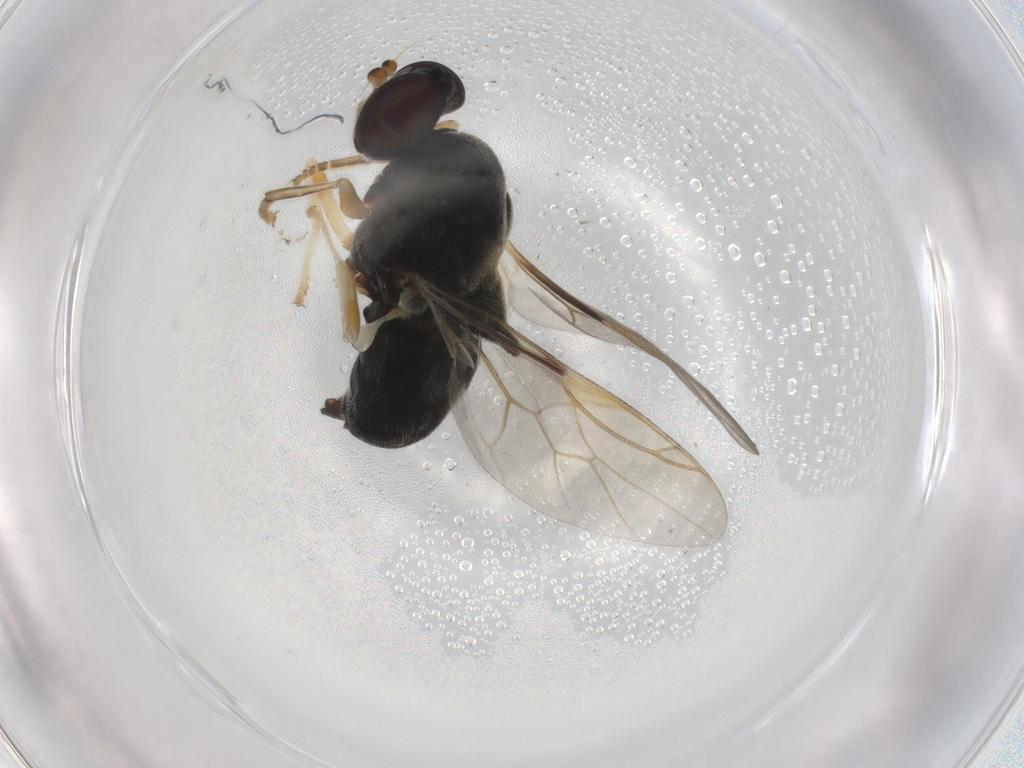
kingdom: Animalia
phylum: Arthropoda
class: Insecta
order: Diptera
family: Stratiomyidae
